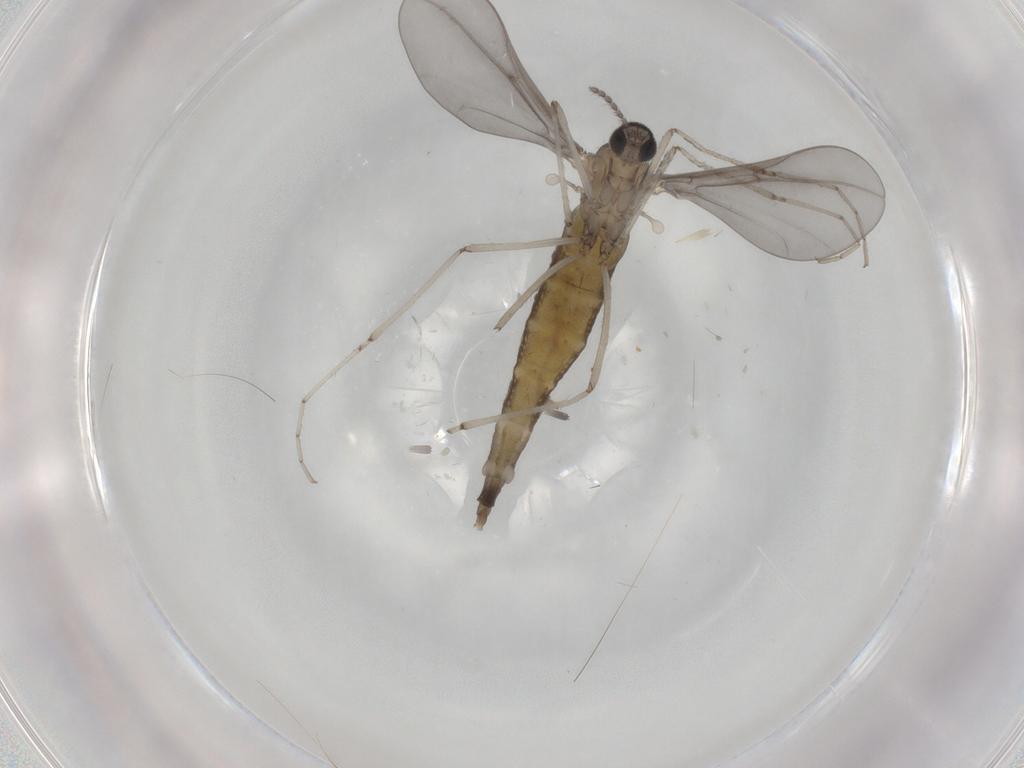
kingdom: Animalia
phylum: Arthropoda
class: Insecta
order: Diptera
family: Cecidomyiidae
